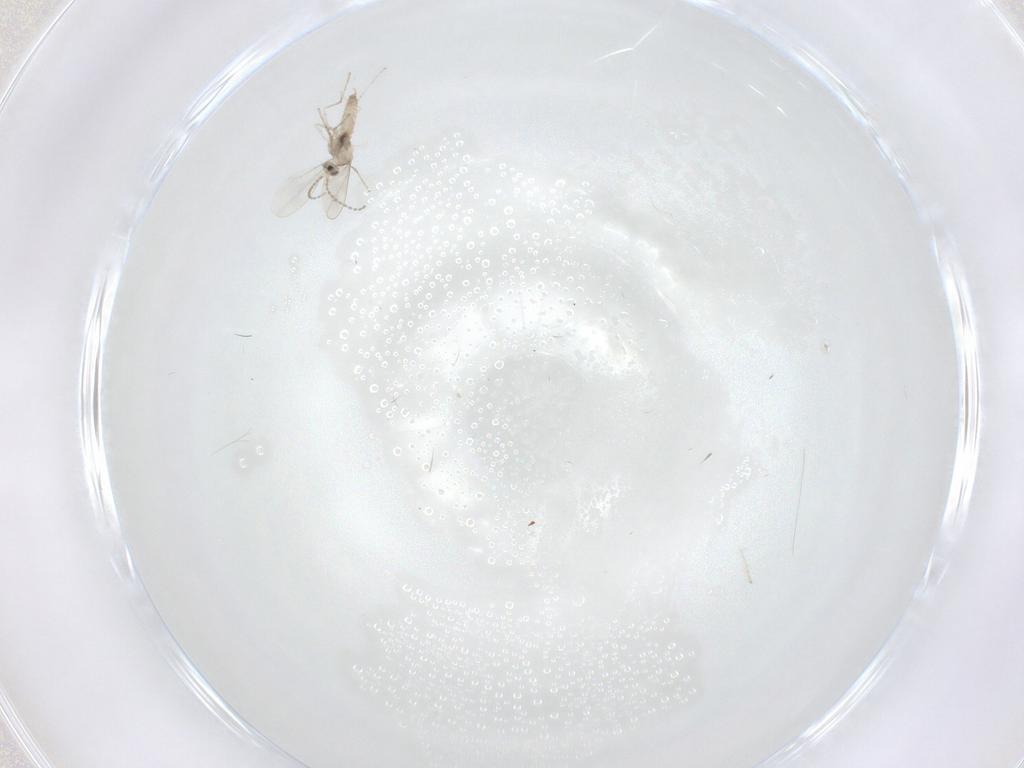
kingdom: Animalia
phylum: Arthropoda
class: Insecta
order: Diptera
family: Cecidomyiidae
